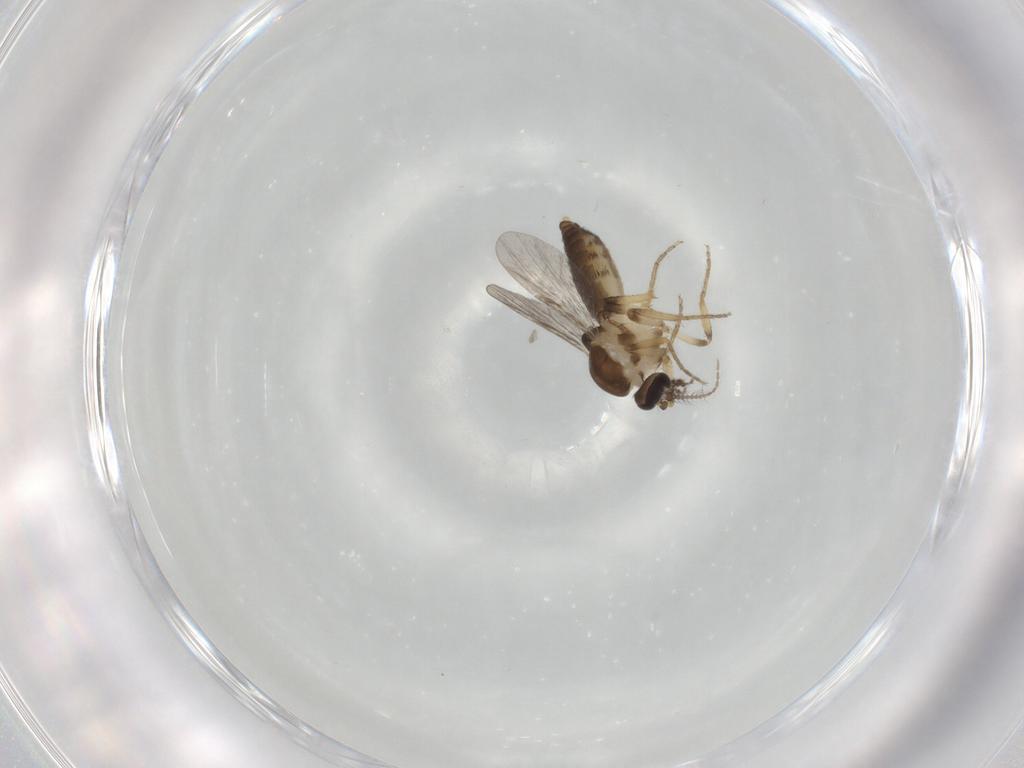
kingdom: Animalia
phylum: Arthropoda
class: Insecta
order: Diptera
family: Ceratopogonidae
